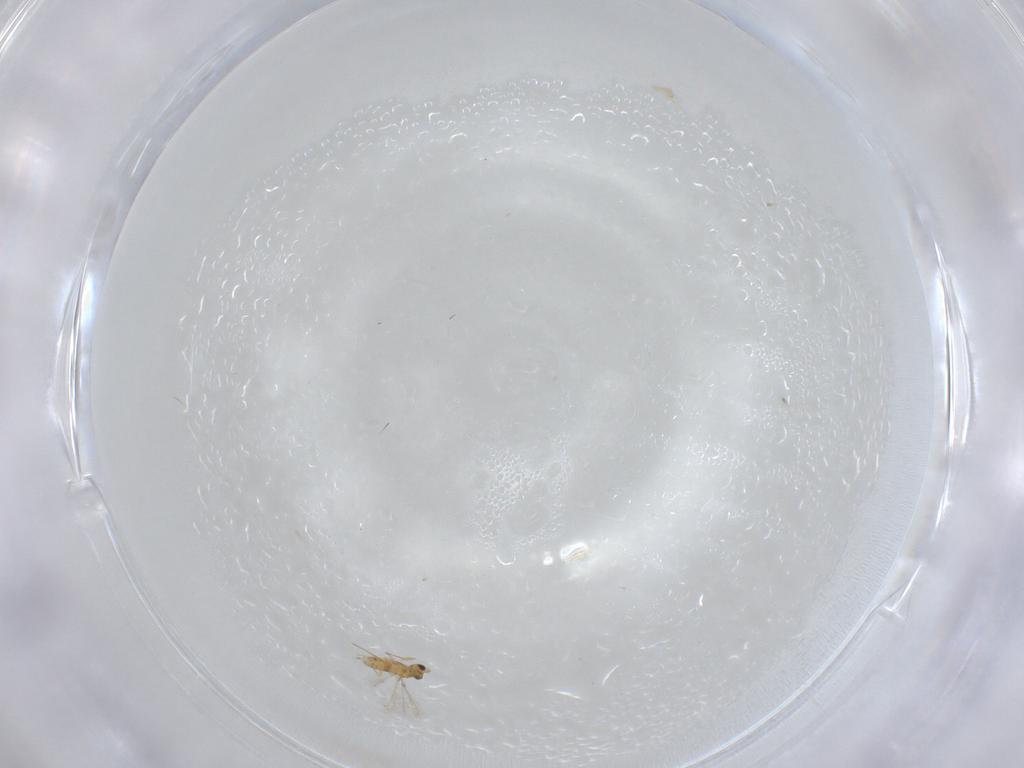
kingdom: Animalia
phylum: Arthropoda
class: Insecta
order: Hymenoptera
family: Mymaridae
